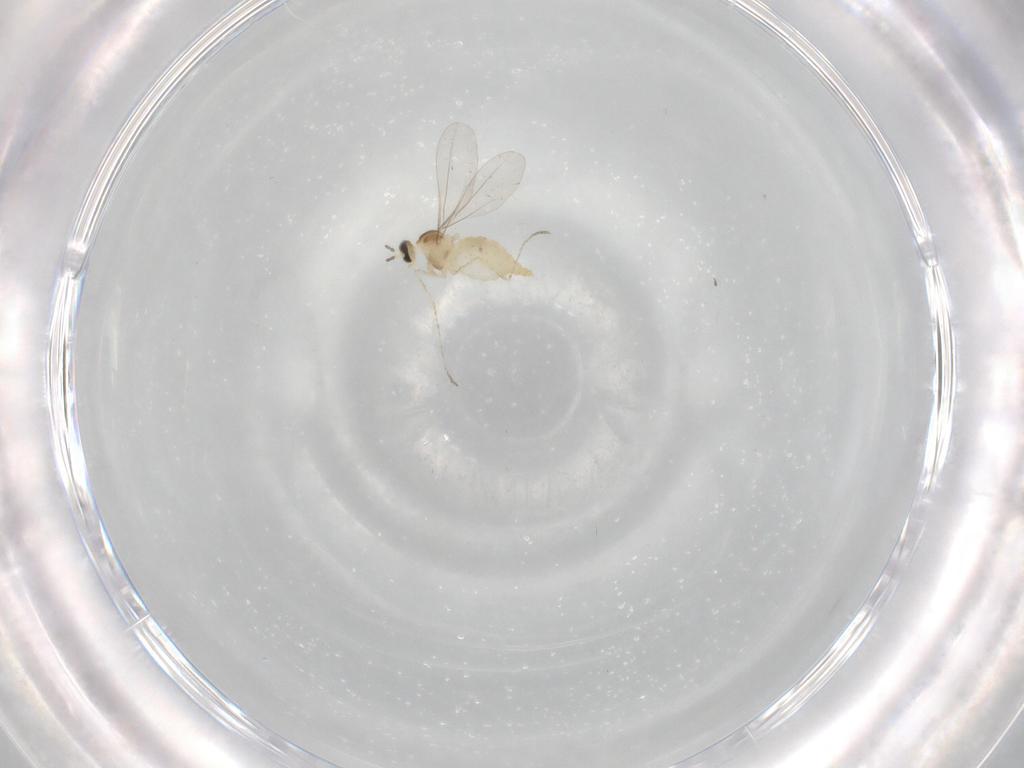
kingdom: Animalia
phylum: Arthropoda
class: Insecta
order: Diptera
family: Cecidomyiidae
